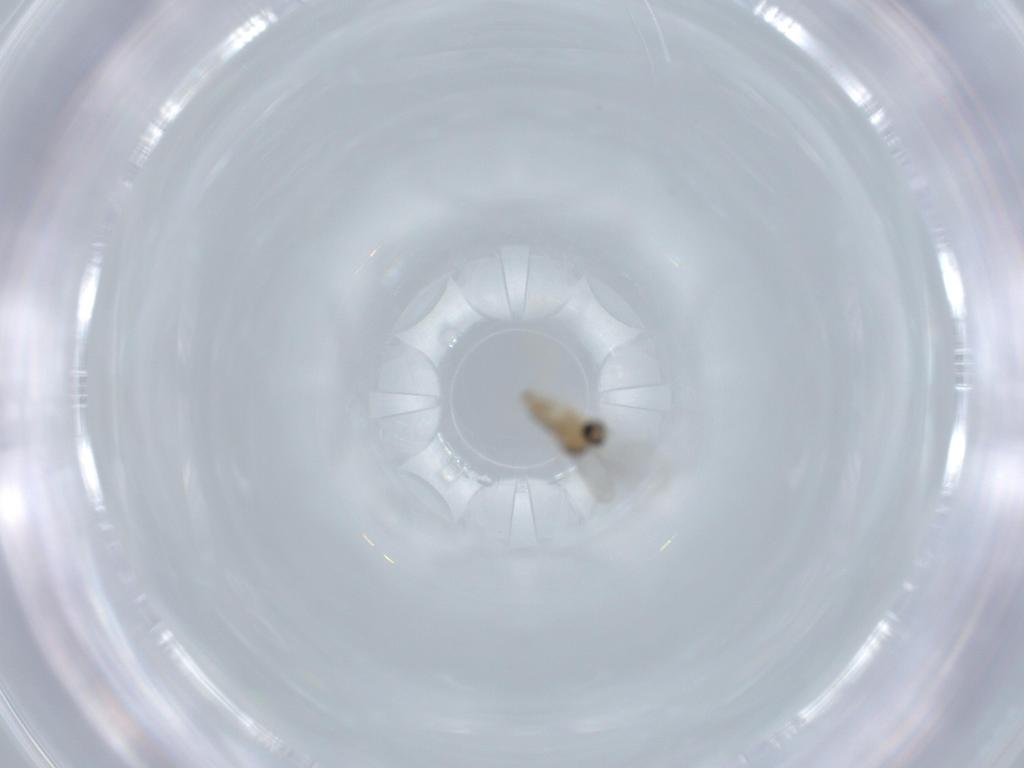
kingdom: Animalia
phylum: Arthropoda
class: Insecta
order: Diptera
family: Cecidomyiidae
